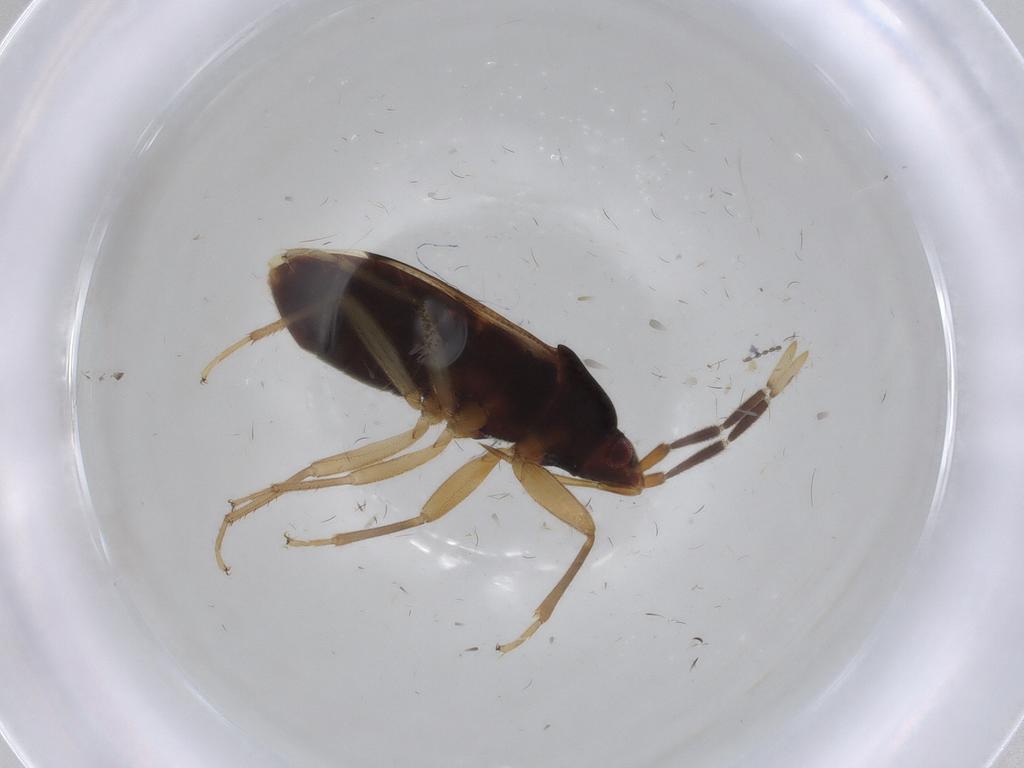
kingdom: Animalia
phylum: Arthropoda
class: Insecta
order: Hemiptera
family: Rhyparochromidae
